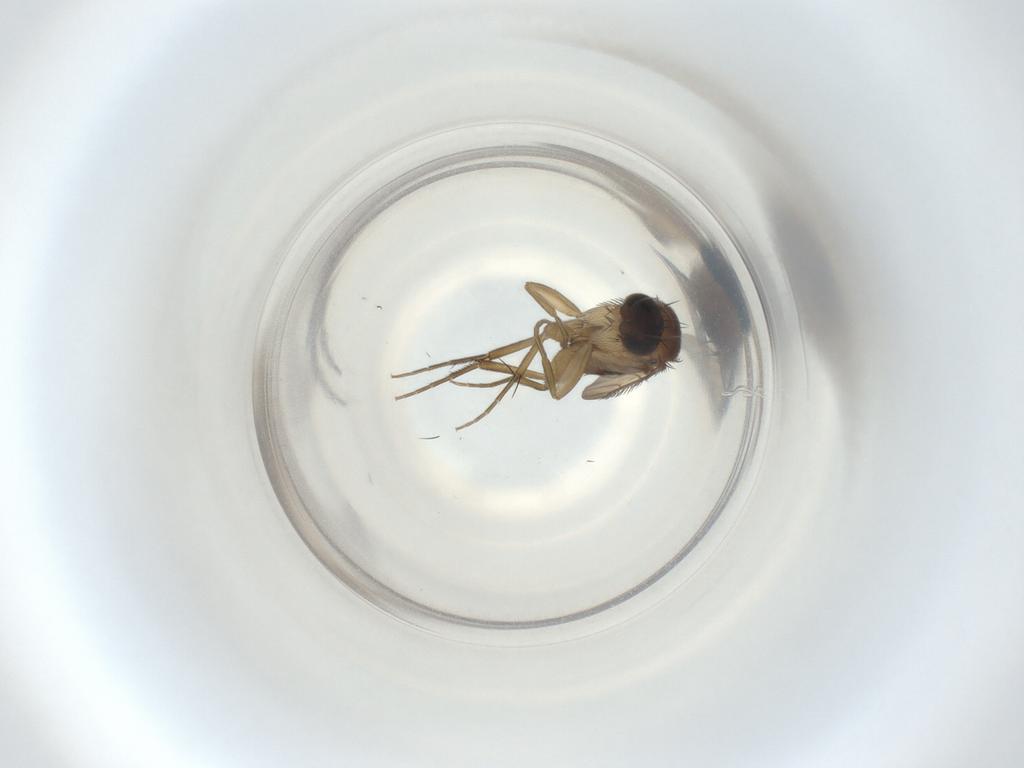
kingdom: Animalia
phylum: Arthropoda
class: Insecta
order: Diptera
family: Phoridae
